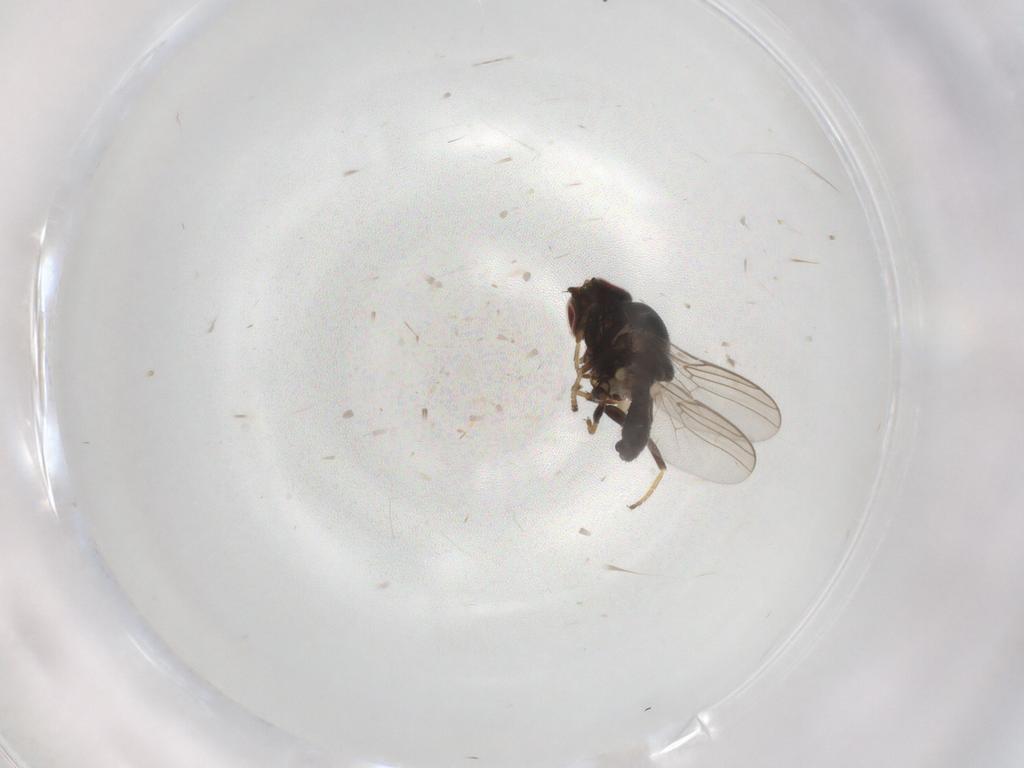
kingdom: Animalia
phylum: Arthropoda
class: Insecta
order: Diptera
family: Chloropidae
